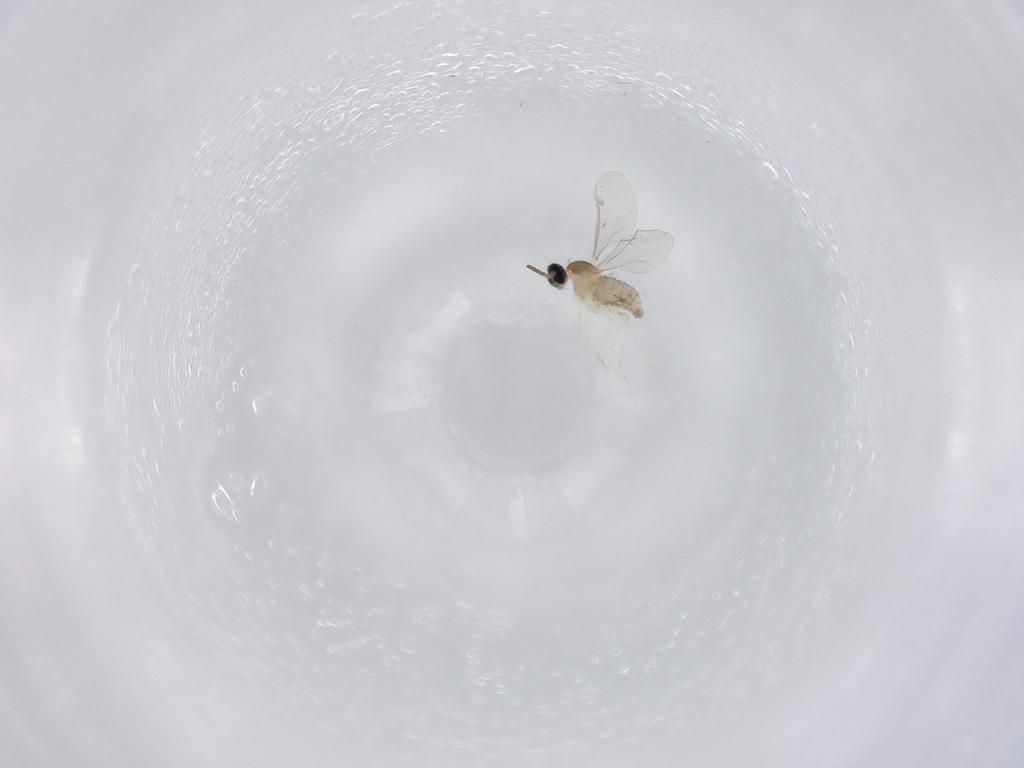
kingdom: Animalia
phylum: Arthropoda
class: Insecta
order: Diptera
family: Cecidomyiidae
